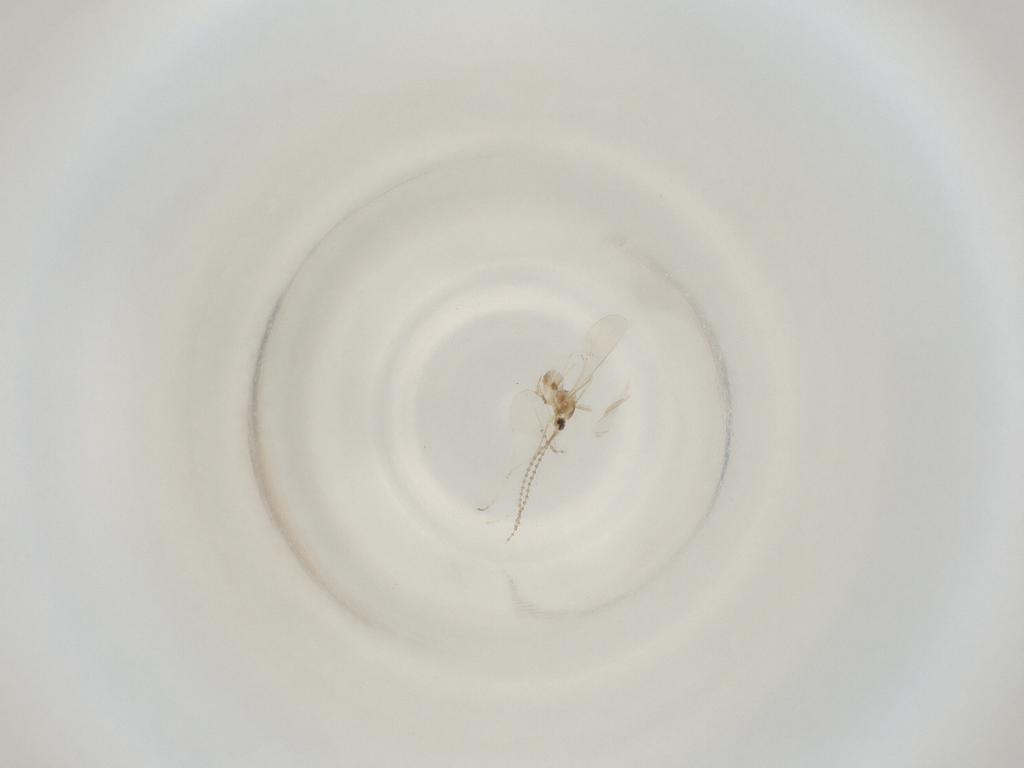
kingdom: Animalia
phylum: Arthropoda
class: Insecta
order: Diptera
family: Cecidomyiidae
